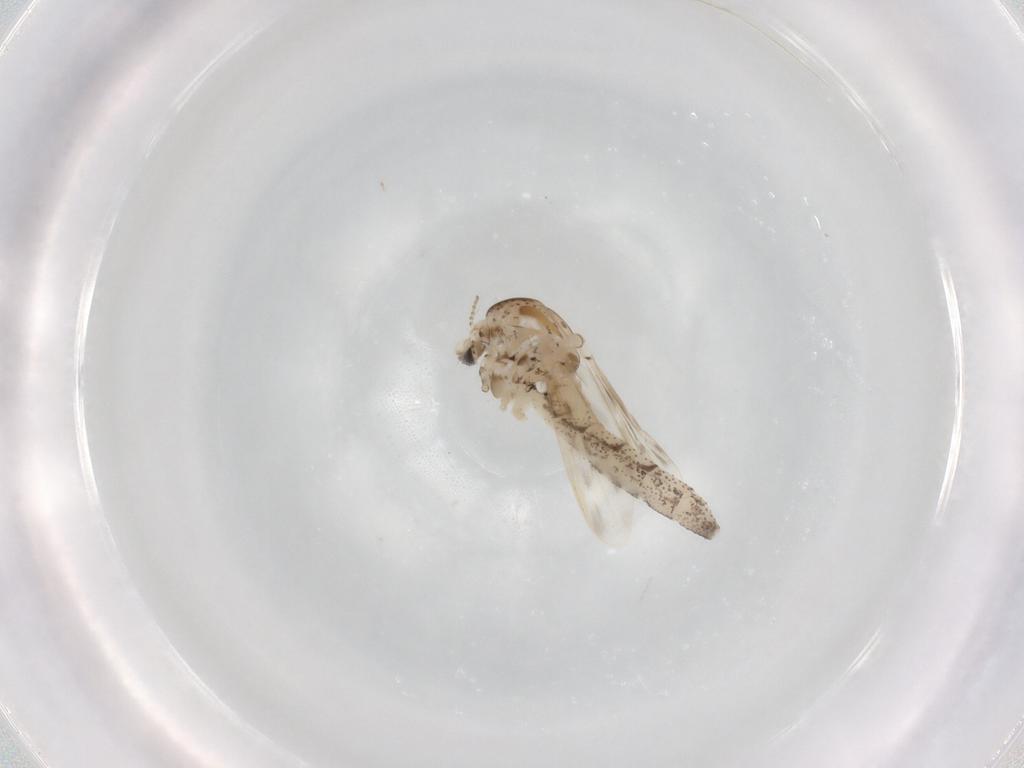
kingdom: Animalia
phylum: Arthropoda
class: Insecta
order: Diptera
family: Chaoboridae
